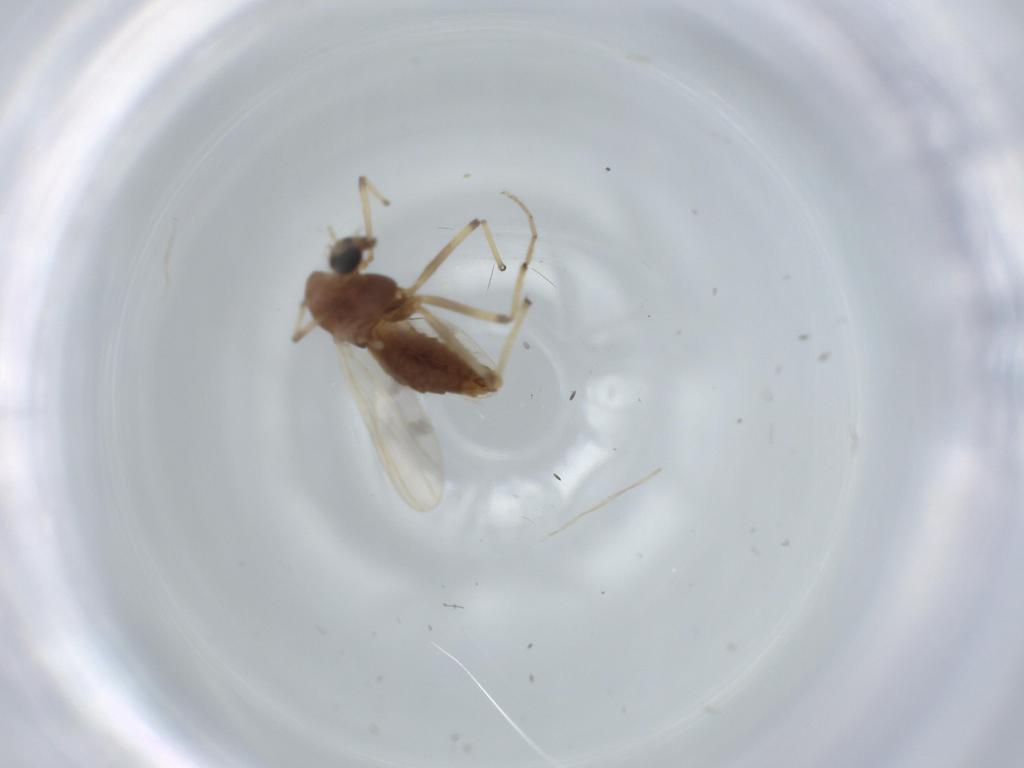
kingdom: Animalia
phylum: Arthropoda
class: Insecta
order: Diptera
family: Chironomidae
